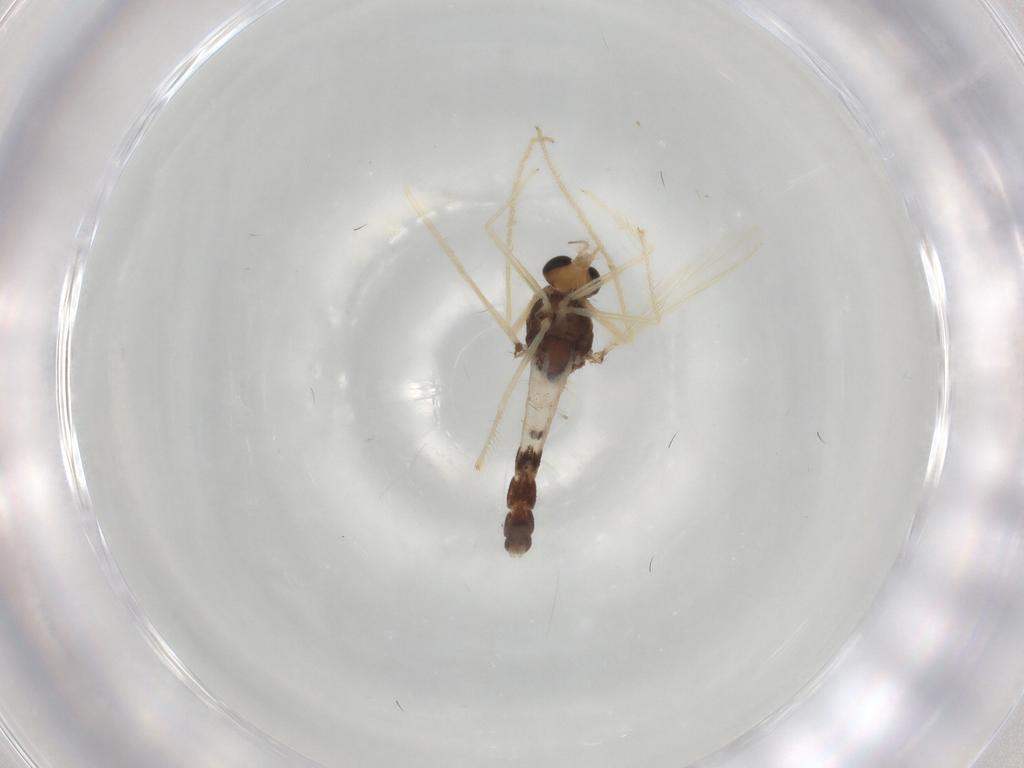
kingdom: Animalia
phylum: Arthropoda
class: Insecta
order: Diptera
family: Chironomidae
